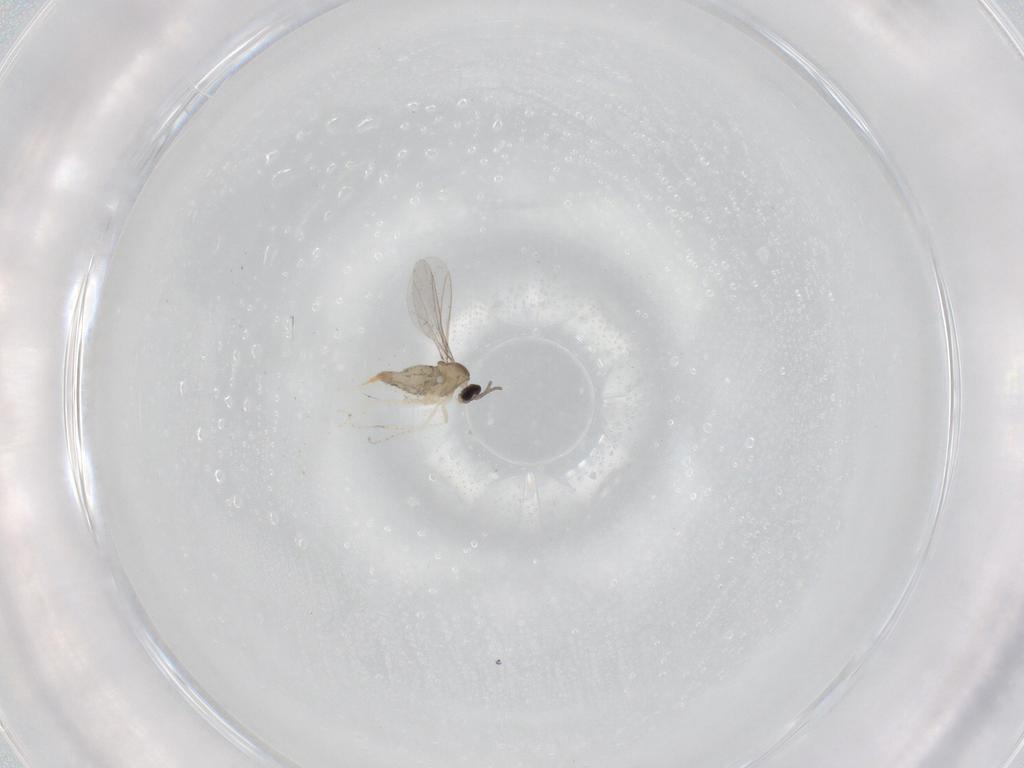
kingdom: Animalia
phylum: Arthropoda
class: Insecta
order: Diptera
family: Cecidomyiidae
